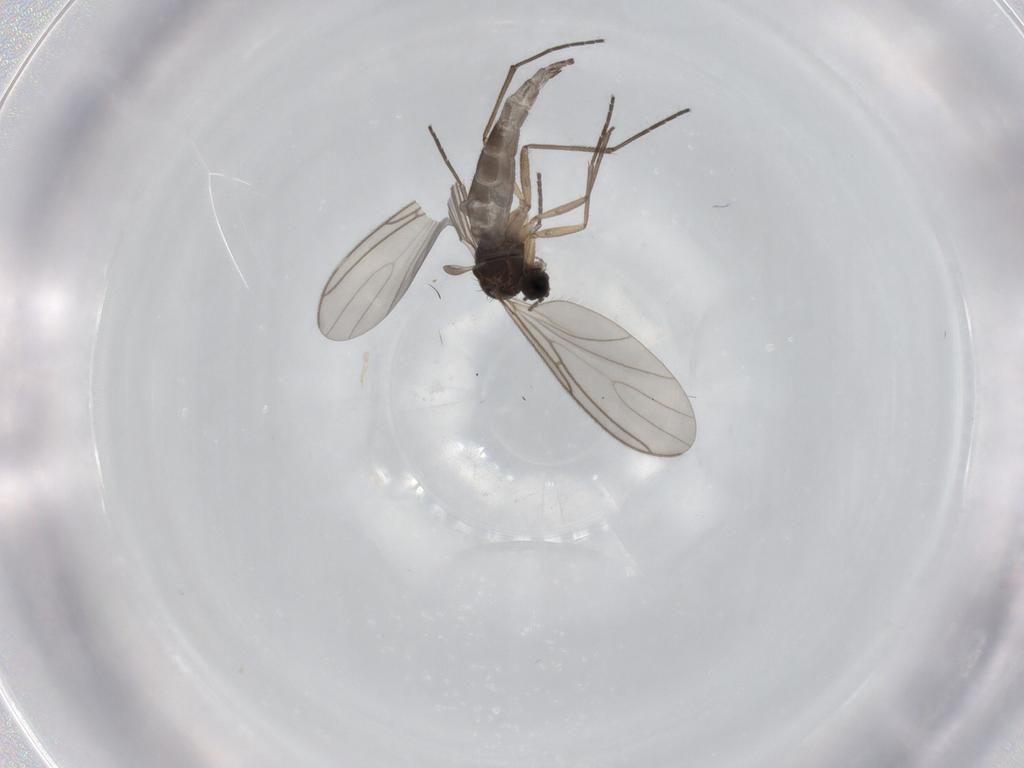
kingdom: Animalia
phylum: Arthropoda
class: Insecta
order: Diptera
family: Sciaridae
